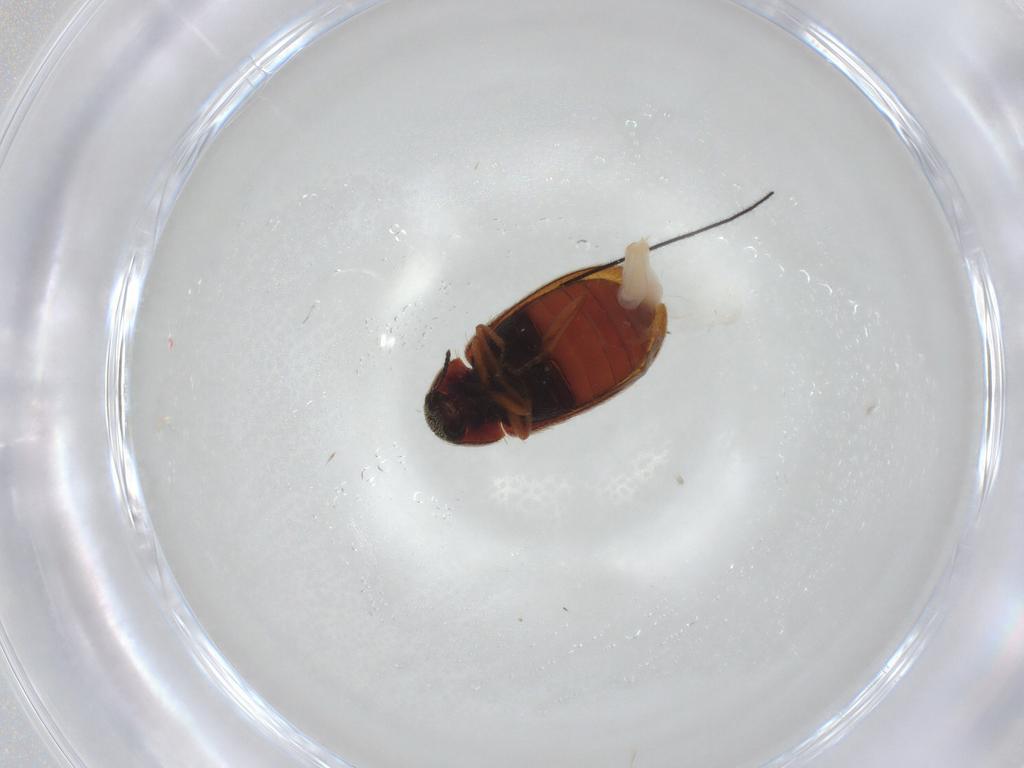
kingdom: Animalia
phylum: Arthropoda
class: Insecta
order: Coleoptera
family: Rhadalidae
